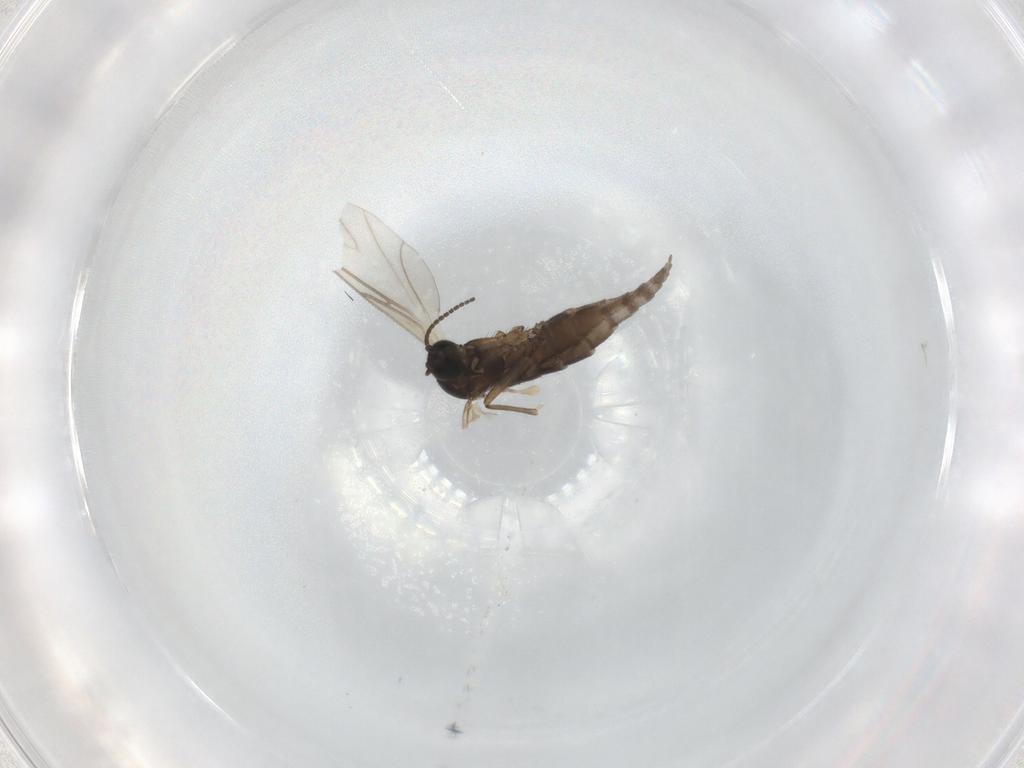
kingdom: Animalia
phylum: Arthropoda
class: Insecta
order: Diptera
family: Sciaridae
